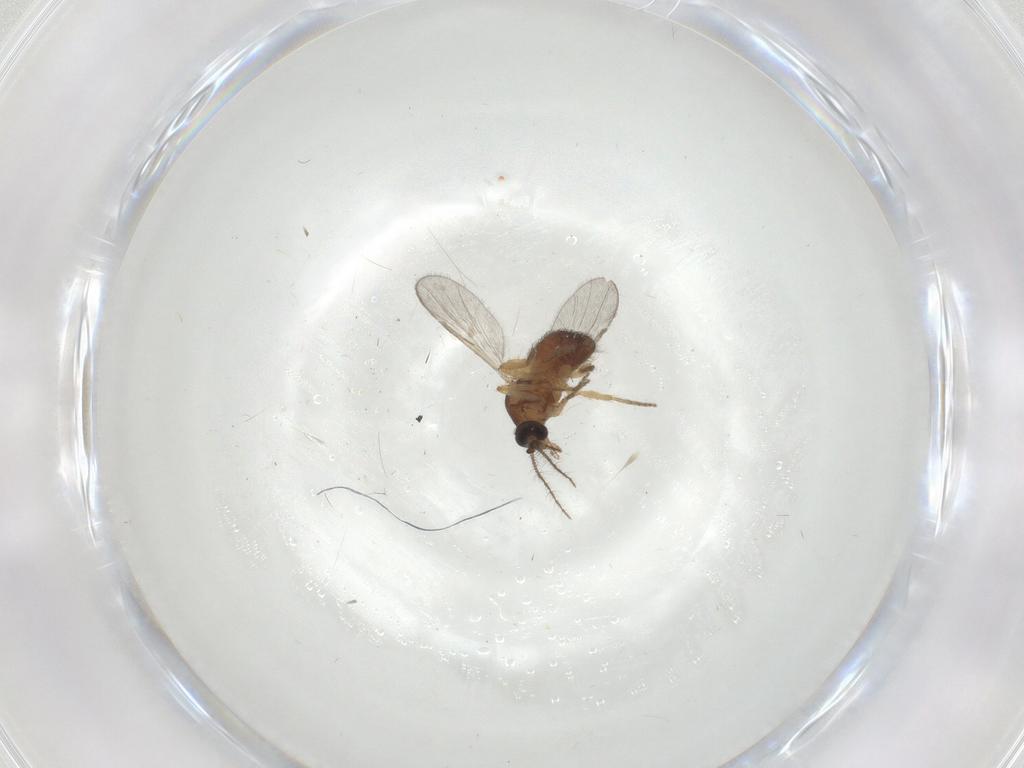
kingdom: Animalia
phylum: Arthropoda
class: Insecta
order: Diptera
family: Ceratopogonidae
